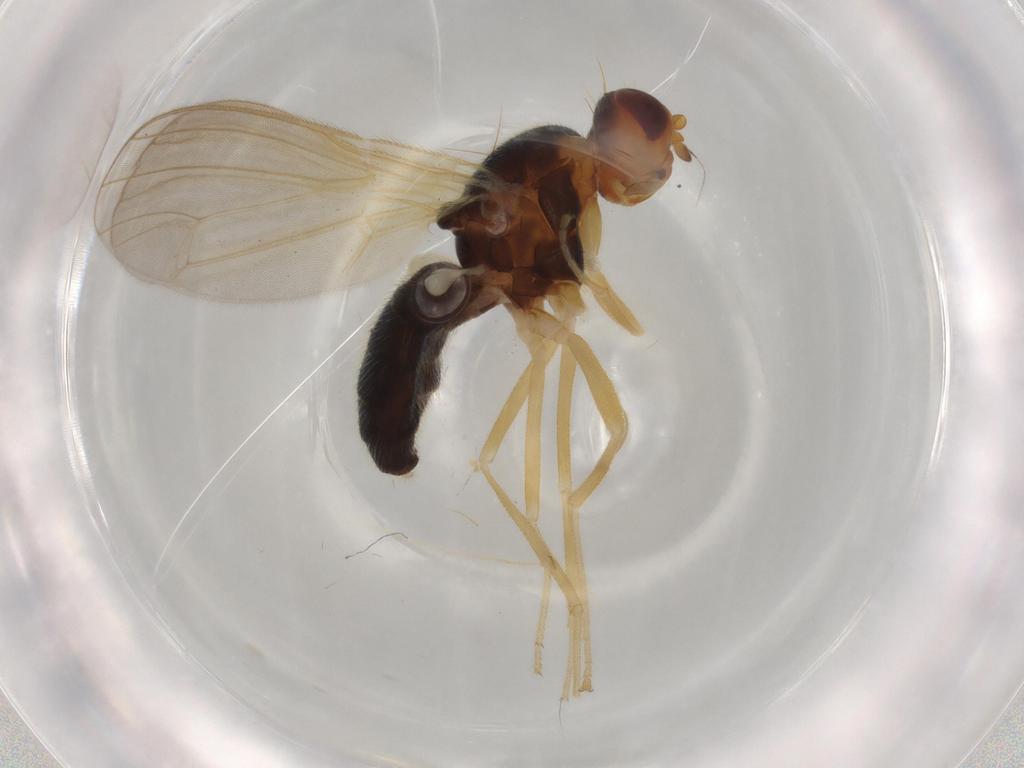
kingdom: Animalia
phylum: Arthropoda
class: Insecta
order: Diptera
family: Psilidae
